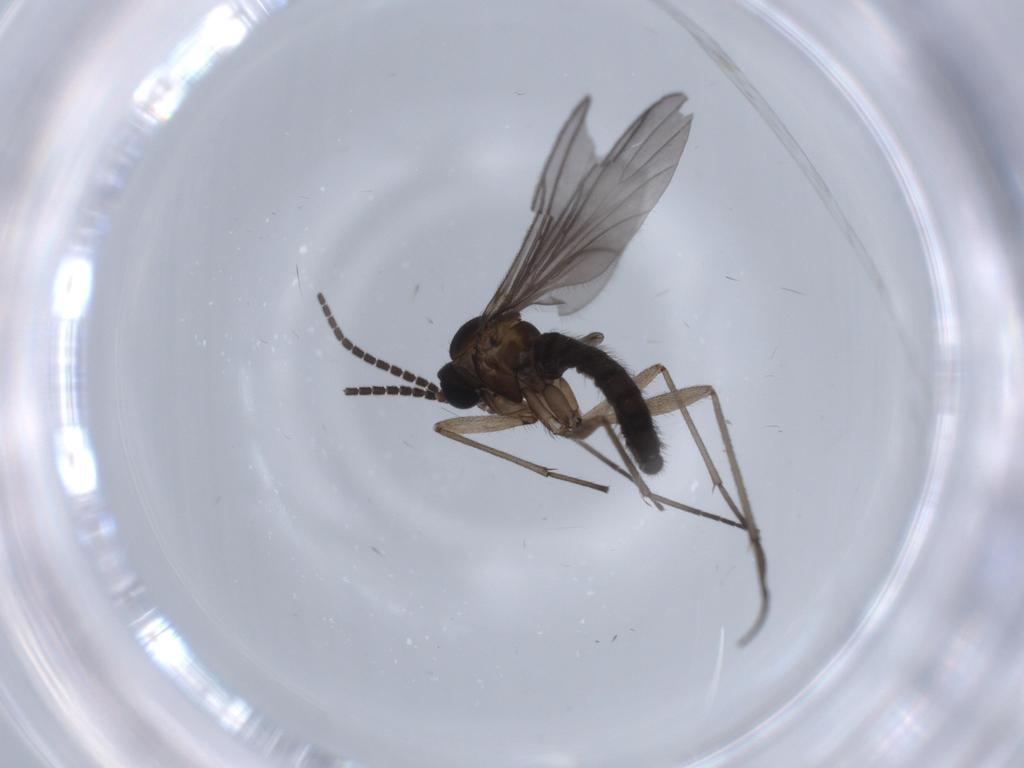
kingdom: Animalia
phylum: Arthropoda
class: Insecta
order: Diptera
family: Sciaridae
